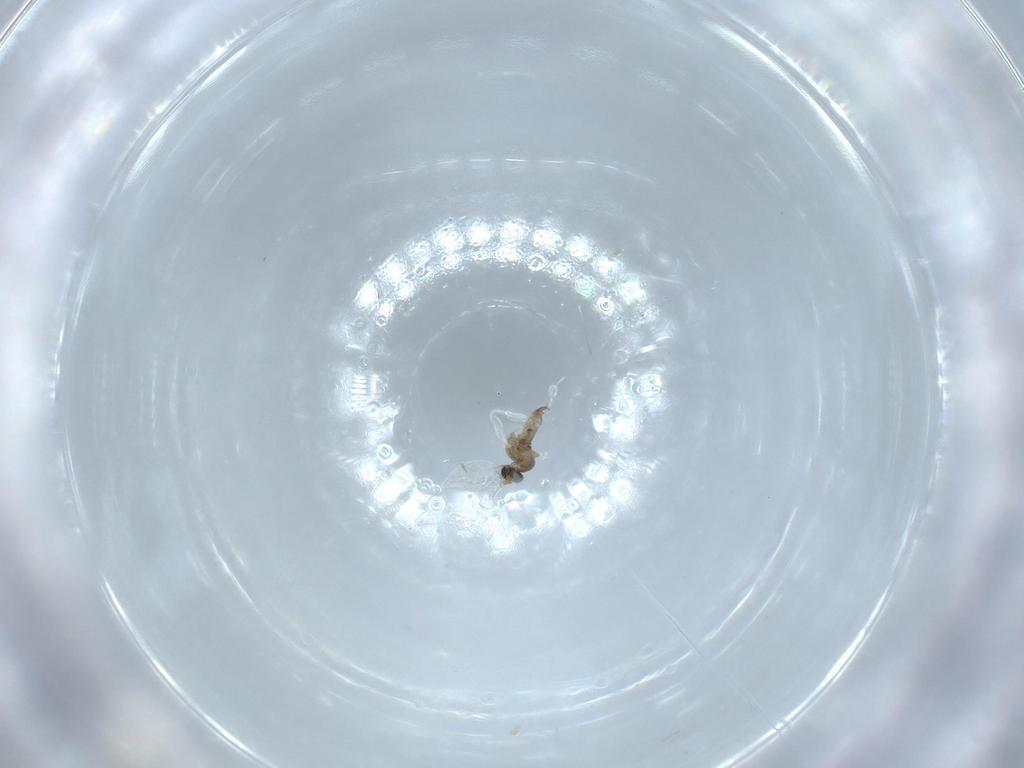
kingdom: Animalia
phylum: Arthropoda
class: Insecta
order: Diptera
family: Cecidomyiidae
